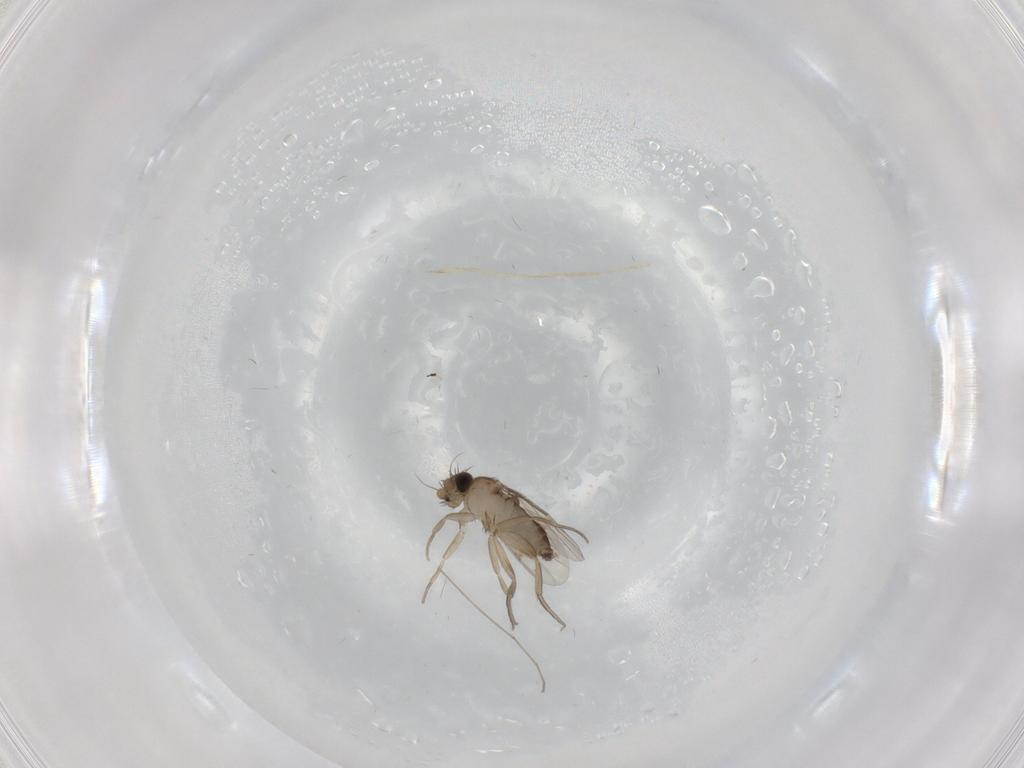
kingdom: Animalia
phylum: Arthropoda
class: Insecta
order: Diptera
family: Phoridae
